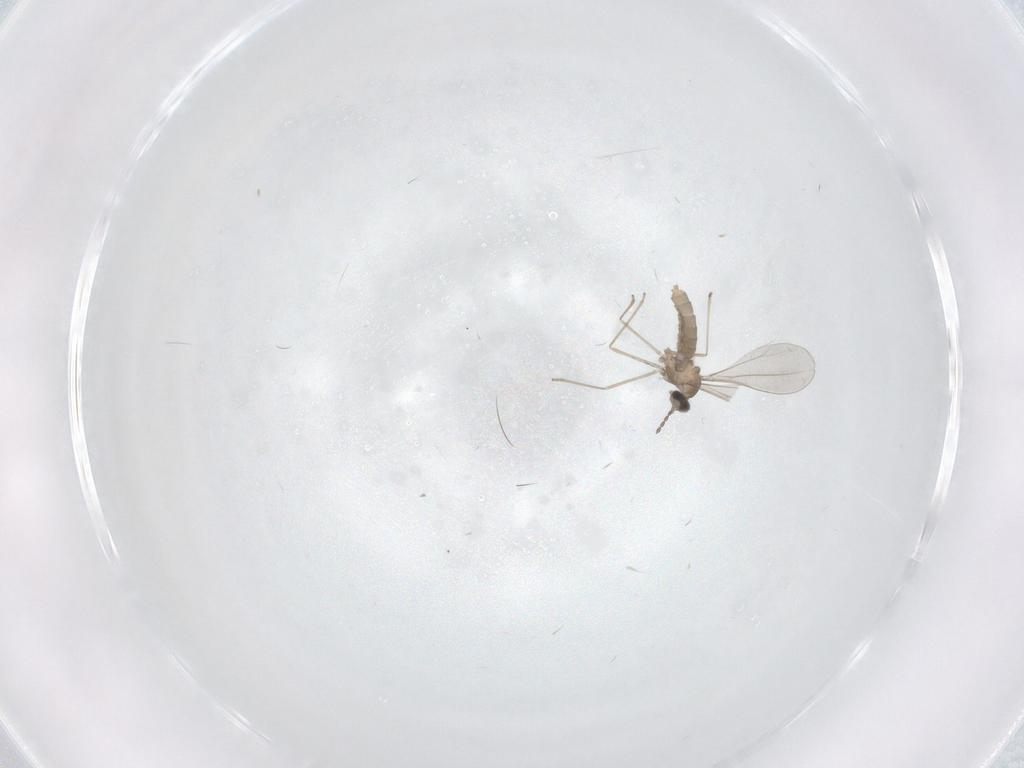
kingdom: Animalia
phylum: Arthropoda
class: Insecta
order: Diptera
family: Cecidomyiidae
